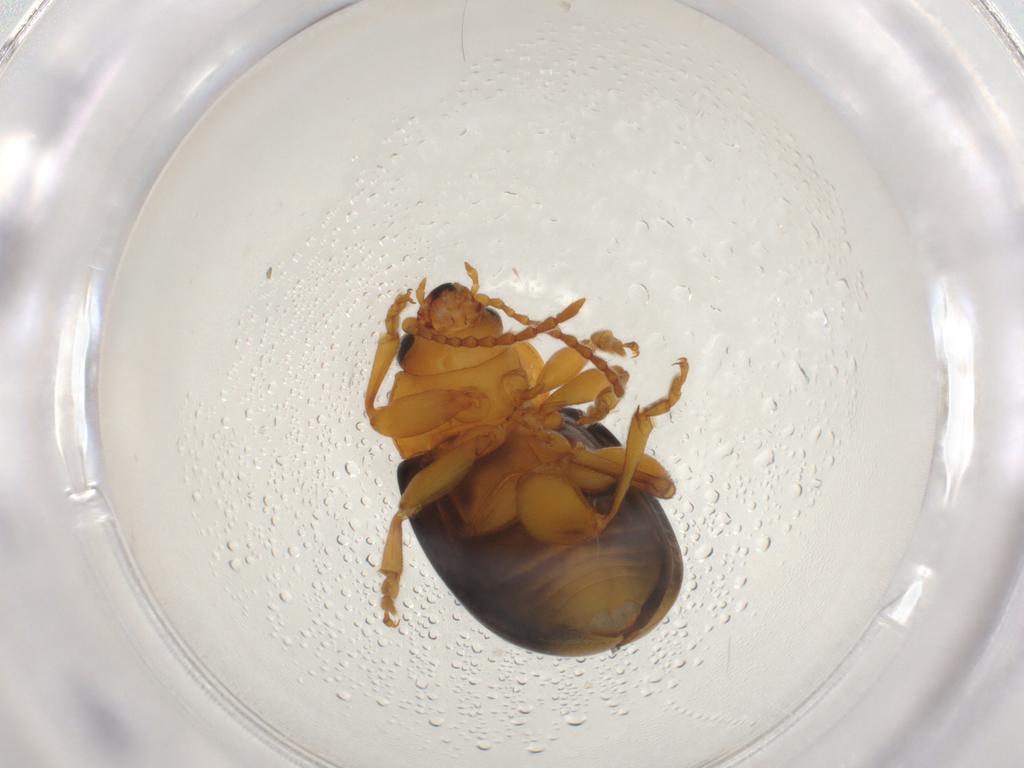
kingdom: Animalia
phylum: Arthropoda
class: Insecta
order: Coleoptera
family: Chrysomelidae
